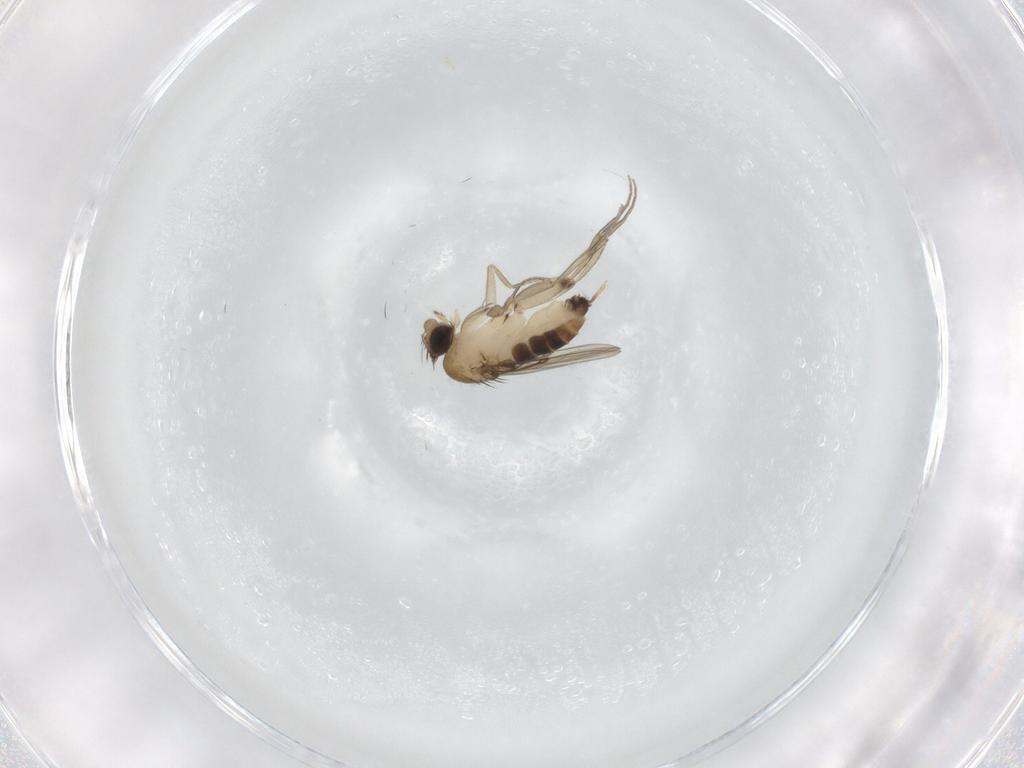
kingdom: Animalia
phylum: Arthropoda
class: Insecta
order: Diptera
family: Phoridae
